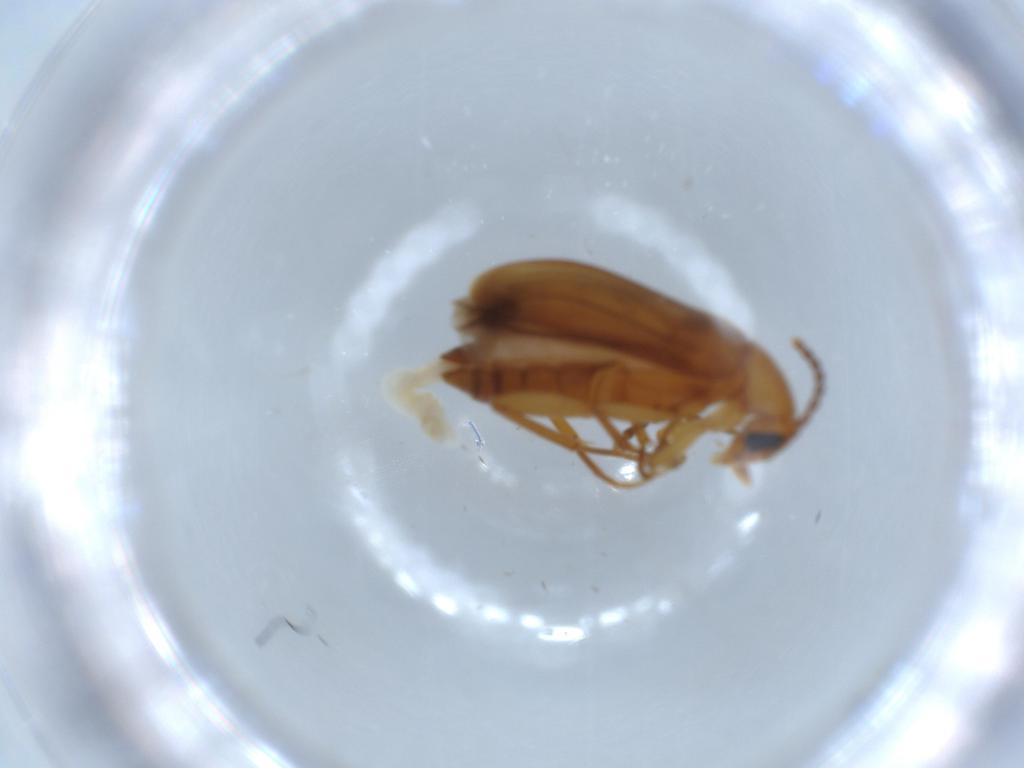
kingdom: Animalia
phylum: Arthropoda
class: Insecta
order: Coleoptera
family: Scraptiidae
